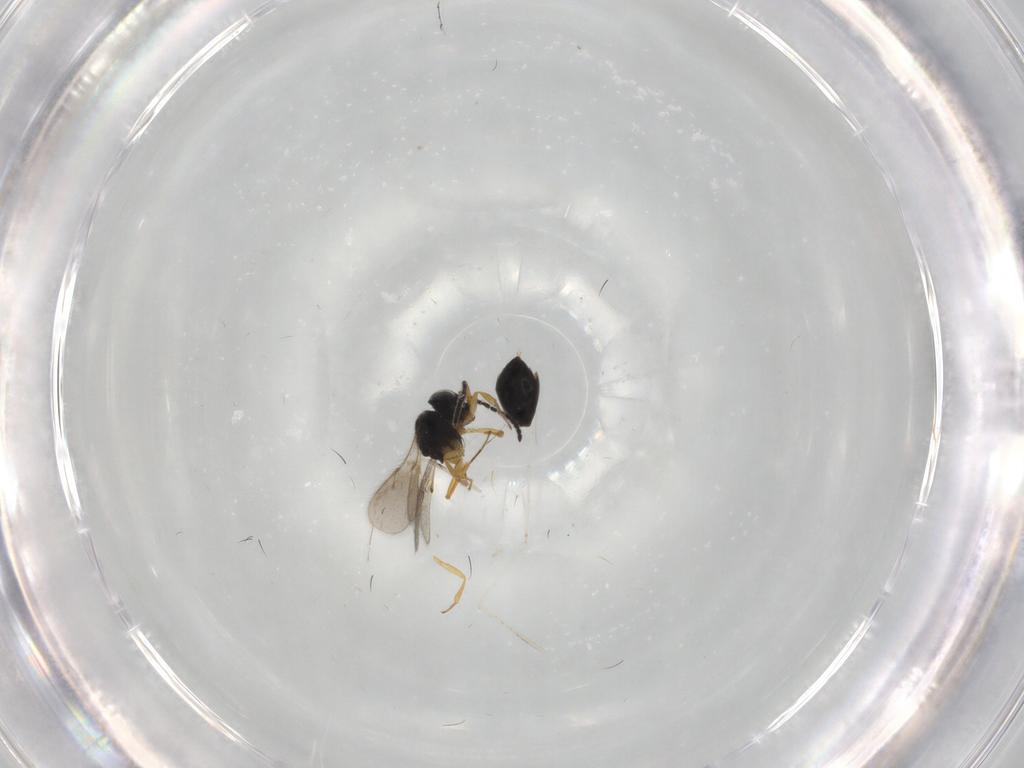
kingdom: Animalia
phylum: Arthropoda
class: Insecta
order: Hymenoptera
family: Scelionidae
